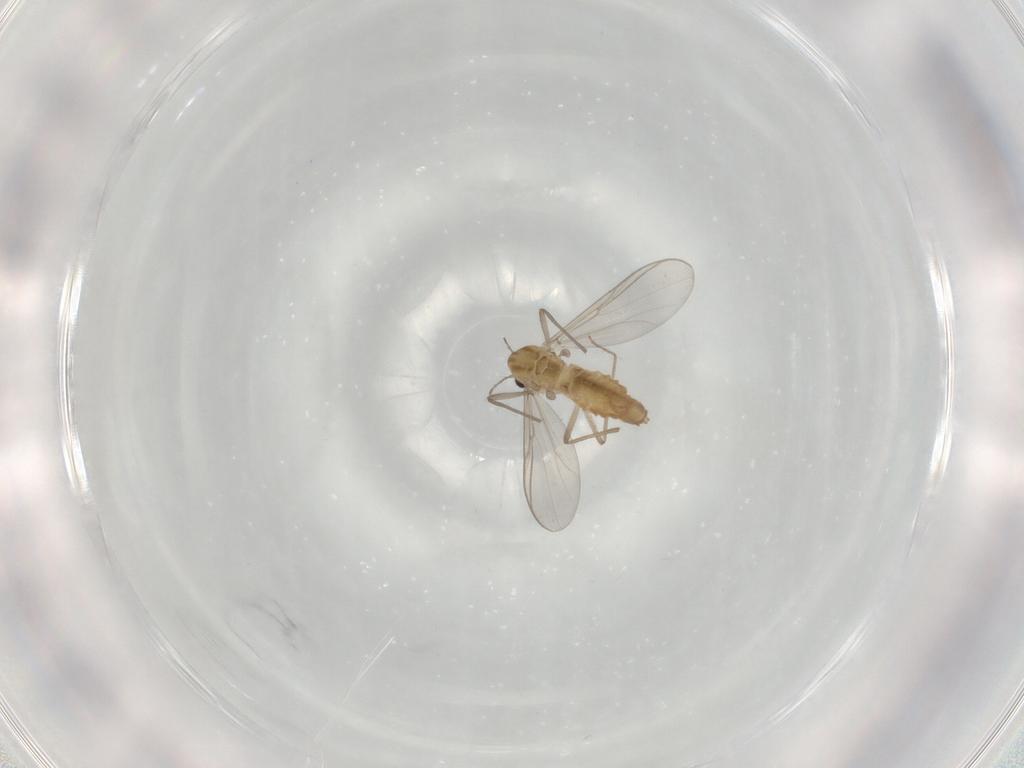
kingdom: Animalia
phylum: Arthropoda
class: Insecta
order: Diptera
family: Chironomidae
